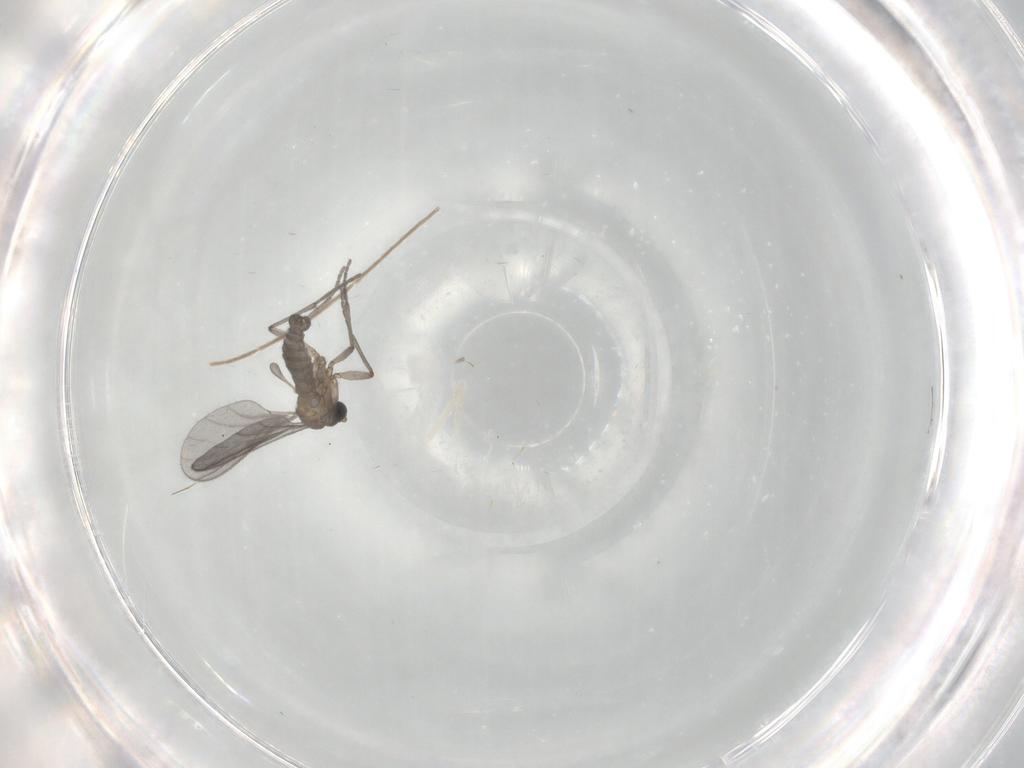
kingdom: Animalia
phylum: Arthropoda
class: Insecta
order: Diptera
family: Sciaridae
